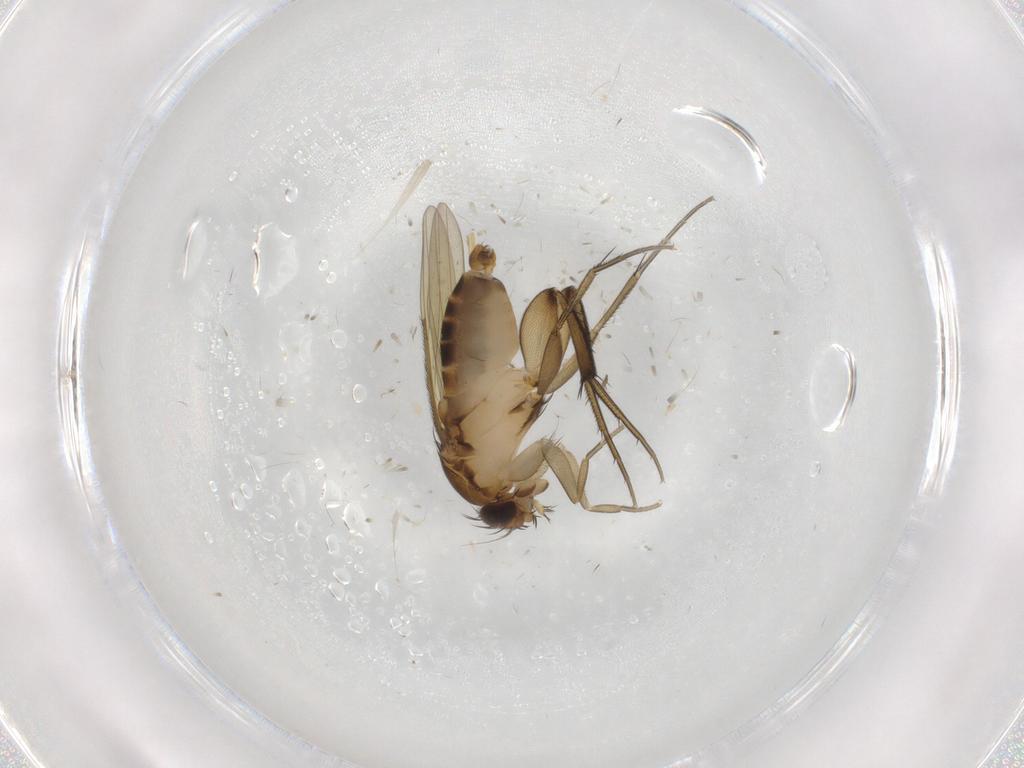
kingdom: Animalia
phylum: Arthropoda
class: Insecta
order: Diptera
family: Phoridae
